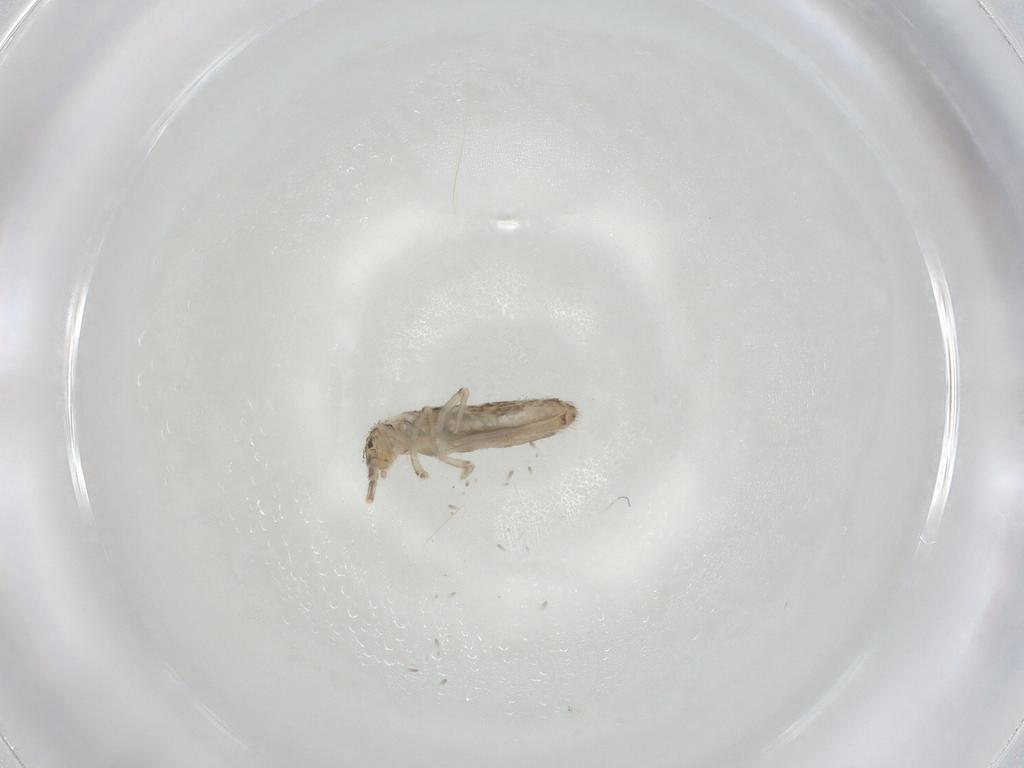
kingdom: Animalia
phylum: Arthropoda
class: Collembola
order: Entomobryomorpha
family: Entomobryidae
